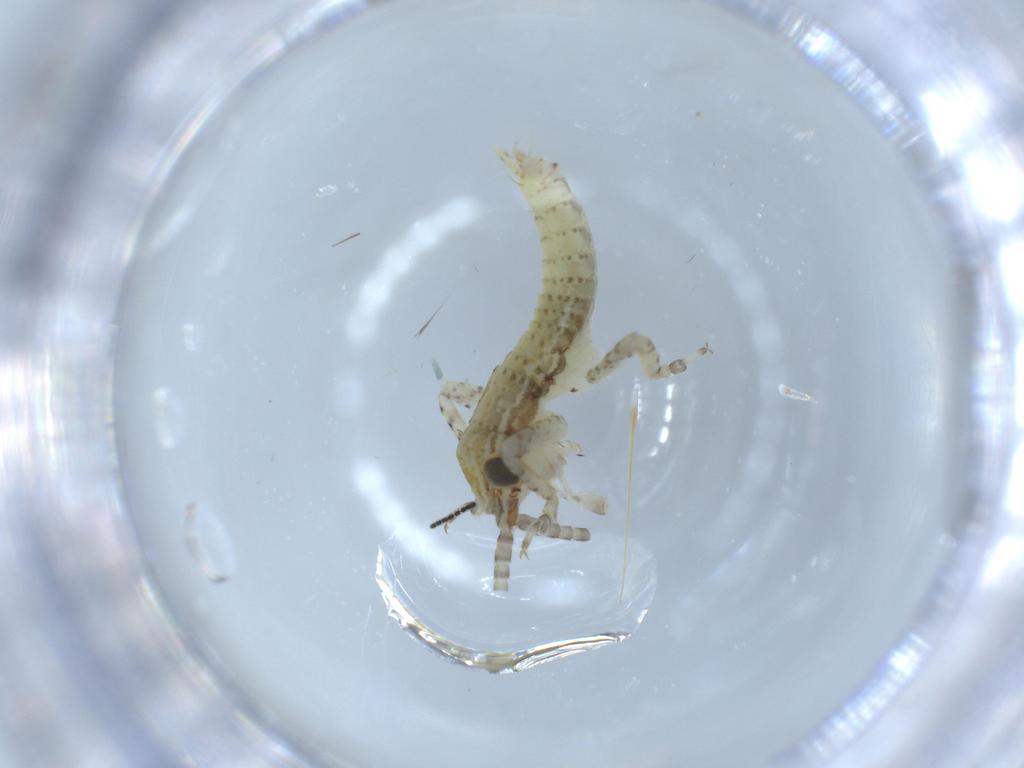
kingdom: Animalia
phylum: Arthropoda
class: Insecta
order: Orthoptera
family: Gryllidae
